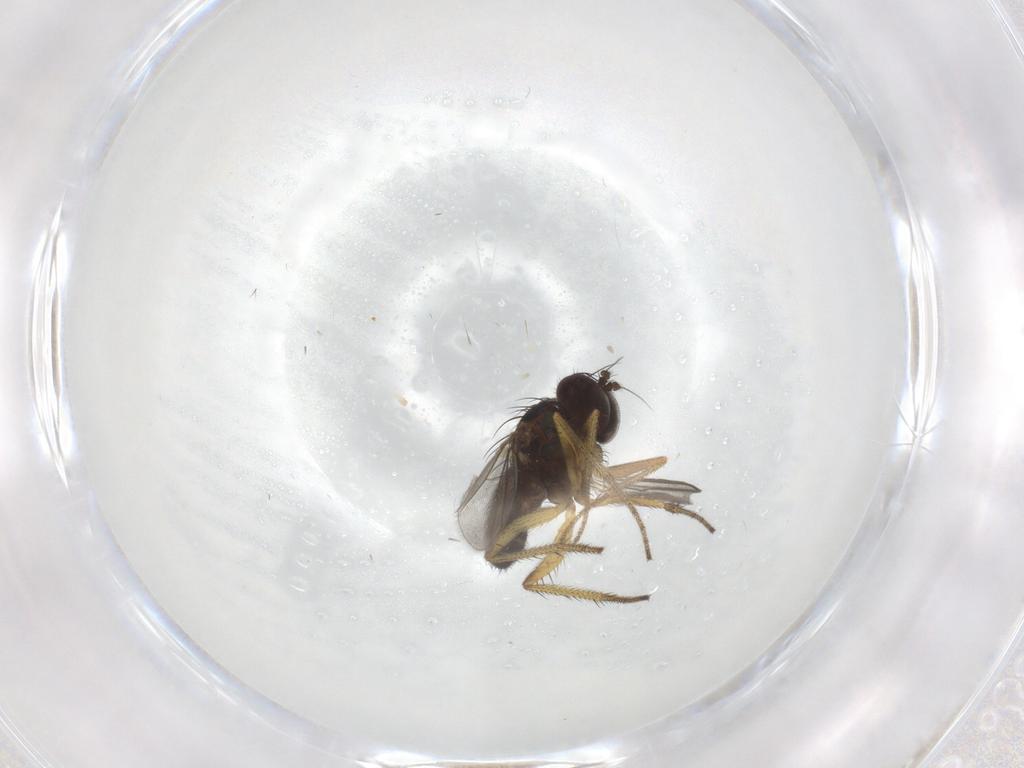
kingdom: Animalia
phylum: Arthropoda
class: Insecta
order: Diptera
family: Dolichopodidae
